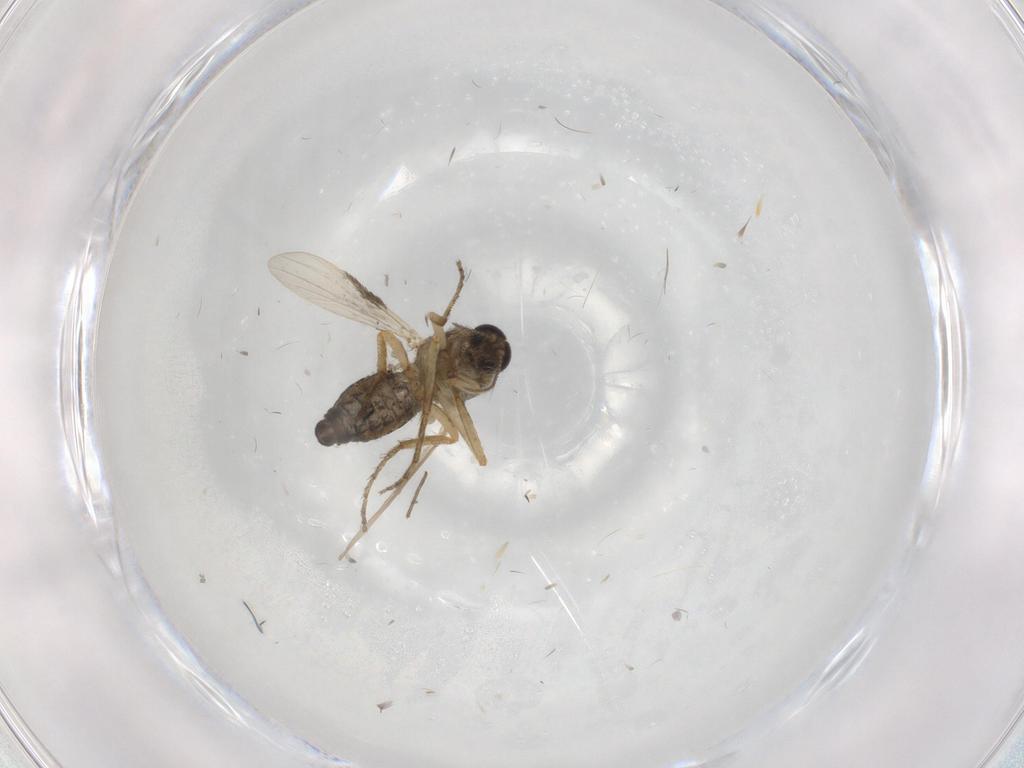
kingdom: Animalia
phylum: Arthropoda
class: Insecta
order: Diptera
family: Ceratopogonidae
